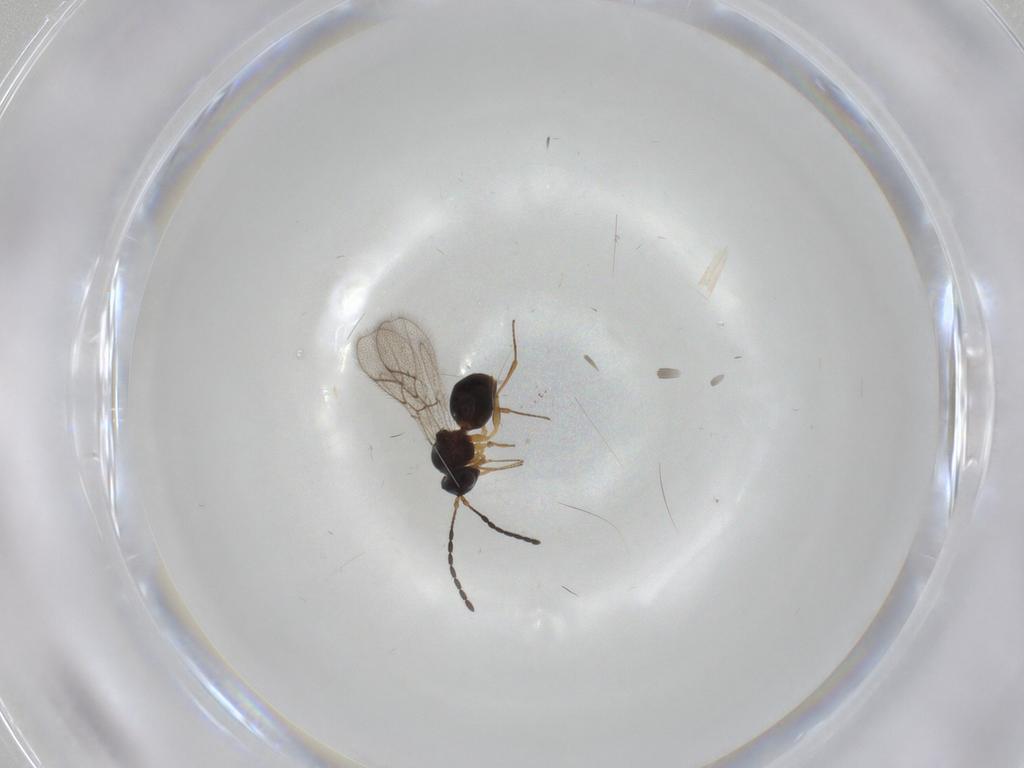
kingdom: Animalia
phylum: Arthropoda
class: Insecta
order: Hymenoptera
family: Figitidae
